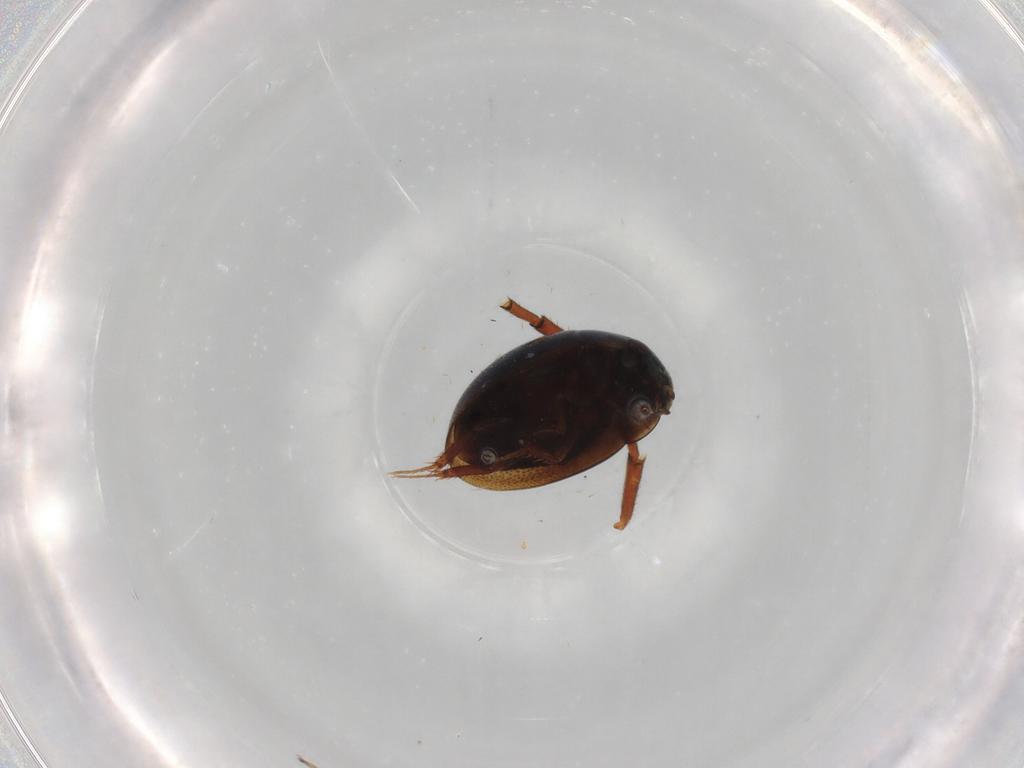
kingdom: Animalia
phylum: Arthropoda
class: Insecta
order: Coleoptera
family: Hydrophilidae
